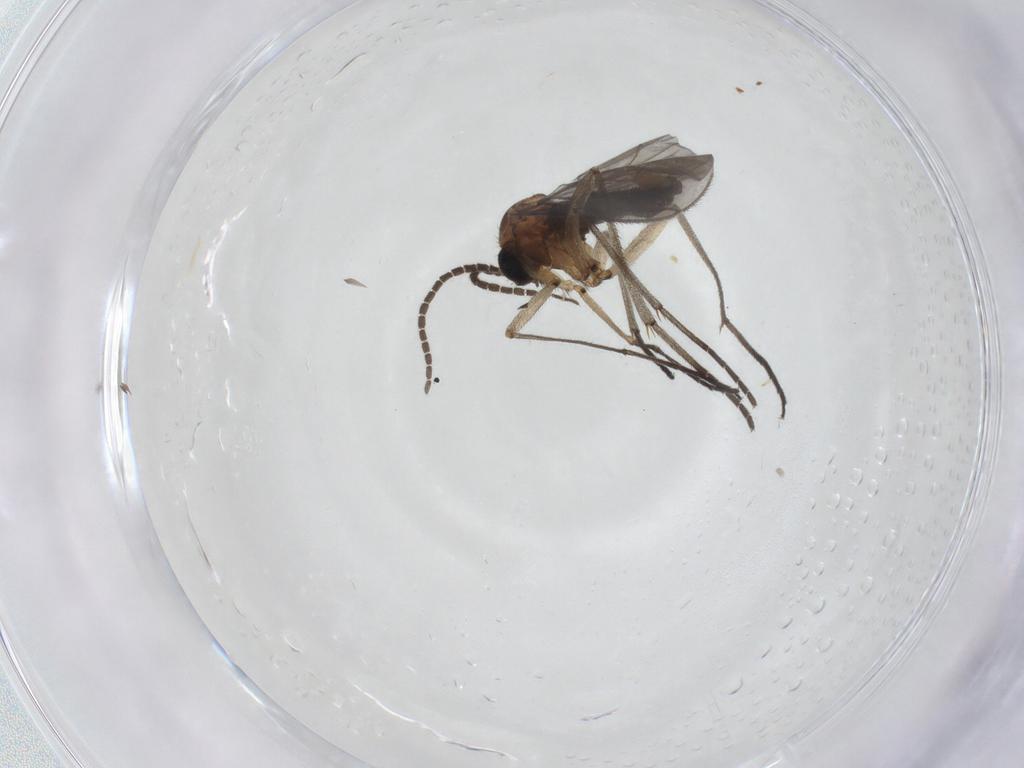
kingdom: Animalia
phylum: Arthropoda
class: Insecta
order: Diptera
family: Sciaridae
